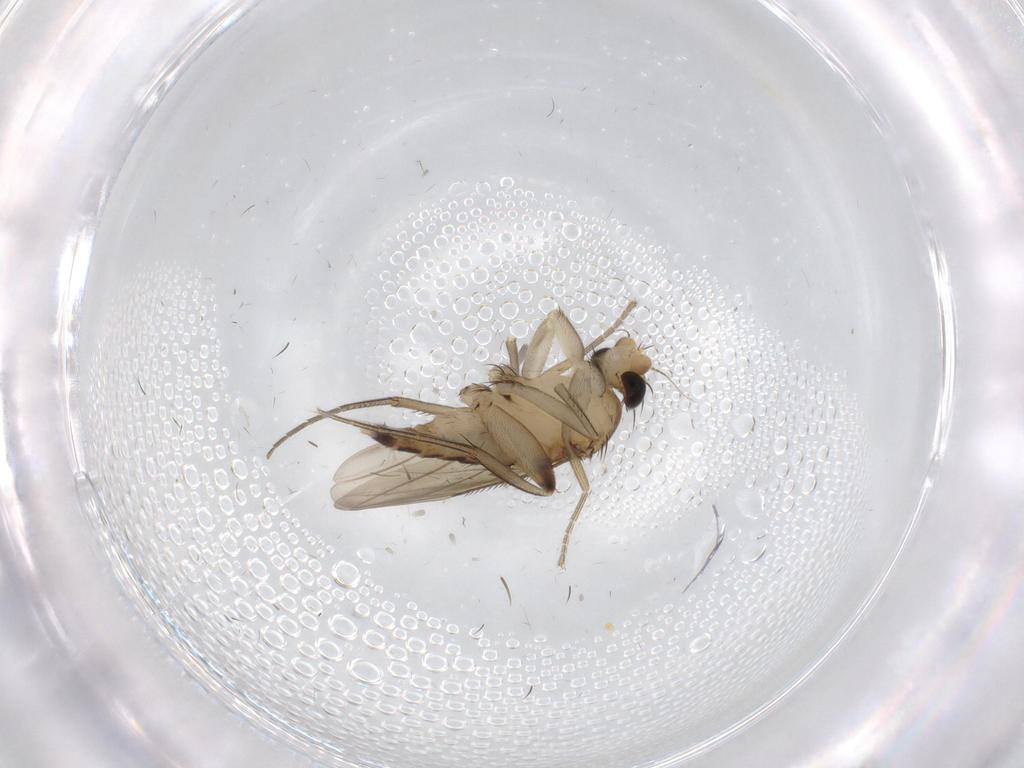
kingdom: Animalia
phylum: Arthropoda
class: Insecta
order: Diptera
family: Phoridae
